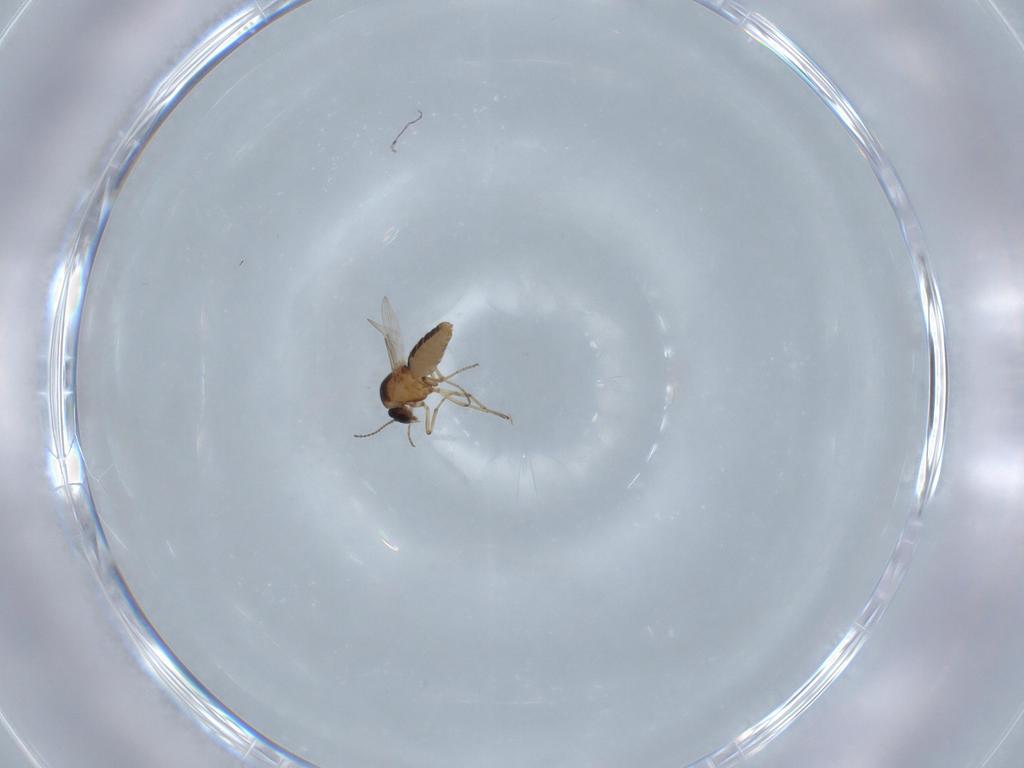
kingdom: Animalia
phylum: Arthropoda
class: Insecta
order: Diptera
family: Ceratopogonidae
